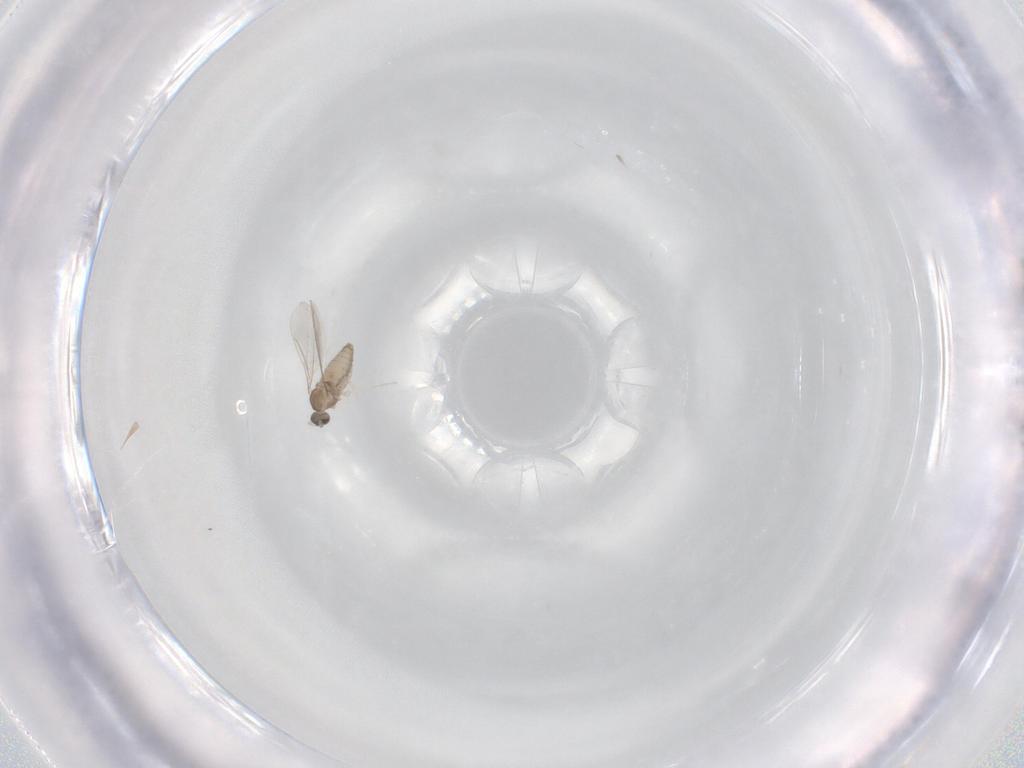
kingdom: Animalia
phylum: Arthropoda
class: Insecta
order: Diptera
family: Cecidomyiidae
